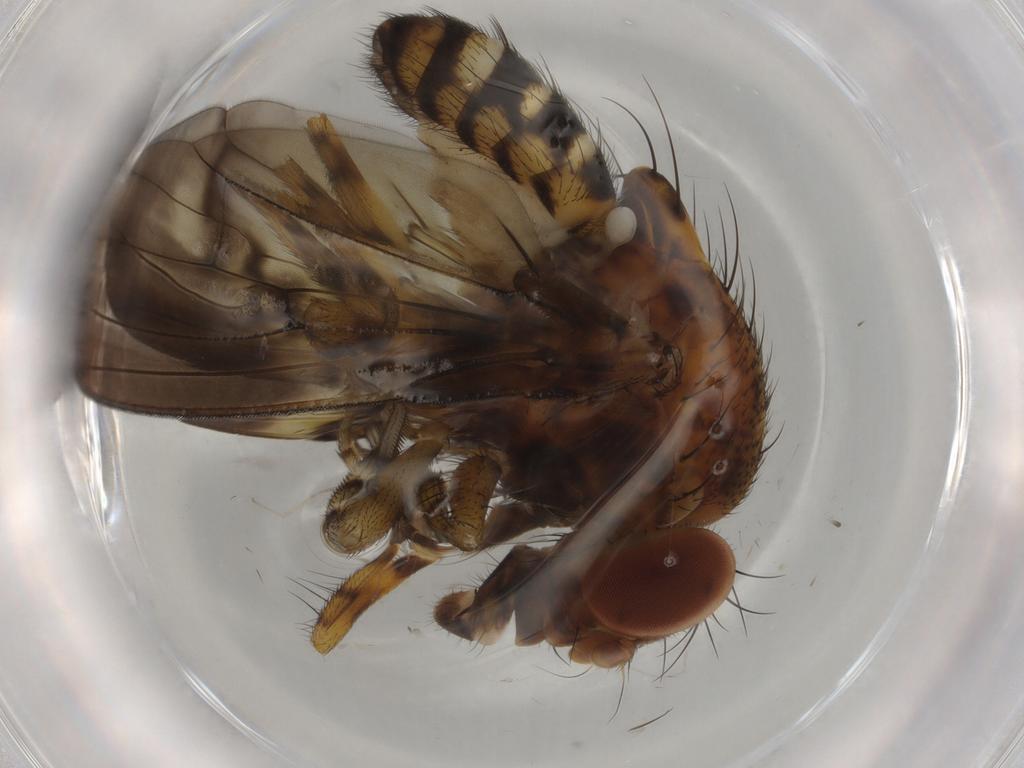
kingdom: Animalia
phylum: Arthropoda
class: Insecta
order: Diptera
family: Drosophilidae
